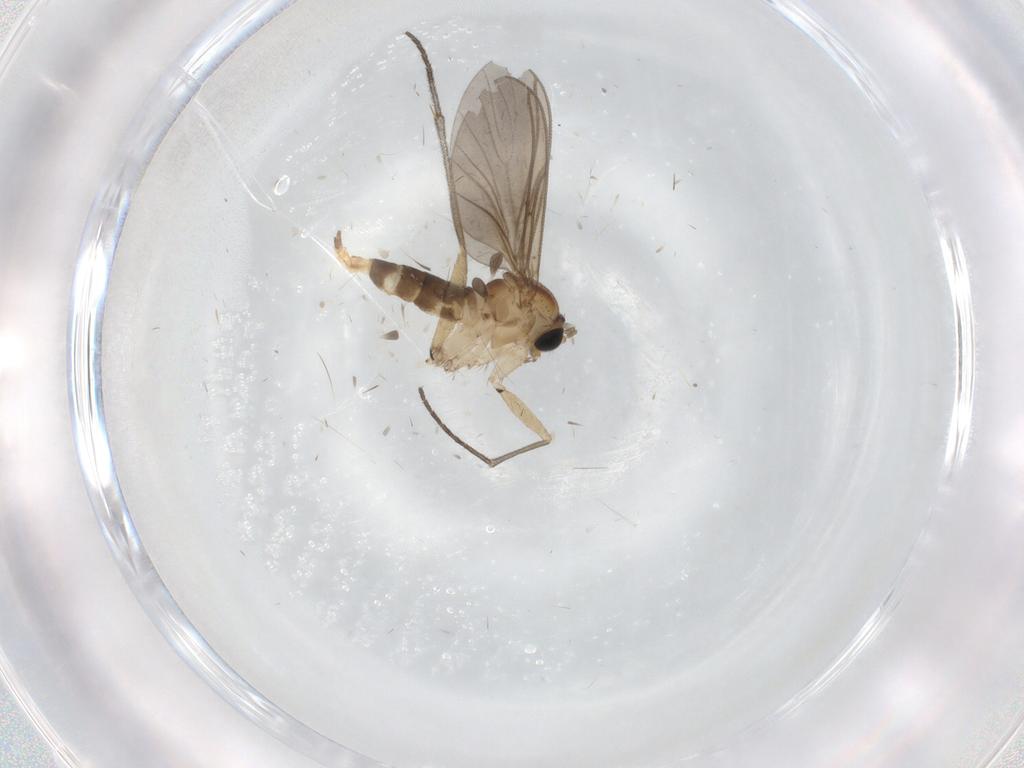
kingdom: Animalia
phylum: Arthropoda
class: Insecta
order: Diptera
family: Sciaridae
